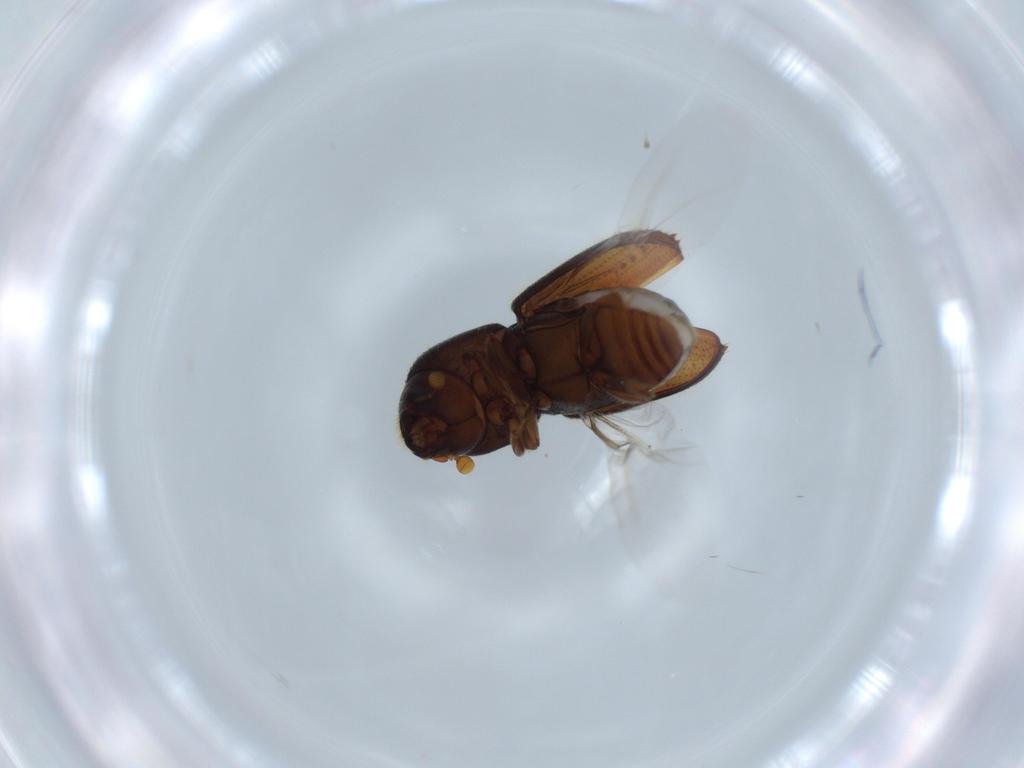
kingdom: Animalia
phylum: Arthropoda
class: Insecta
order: Coleoptera
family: Curculionidae
